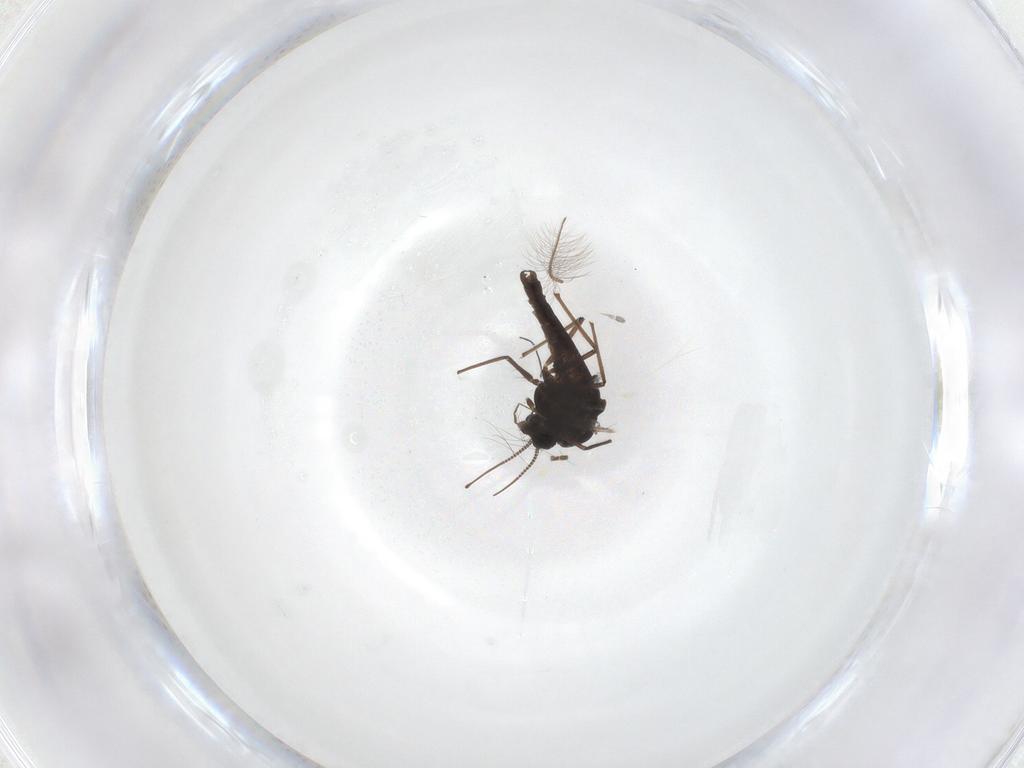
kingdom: Animalia
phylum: Arthropoda
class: Insecta
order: Diptera
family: Chironomidae
